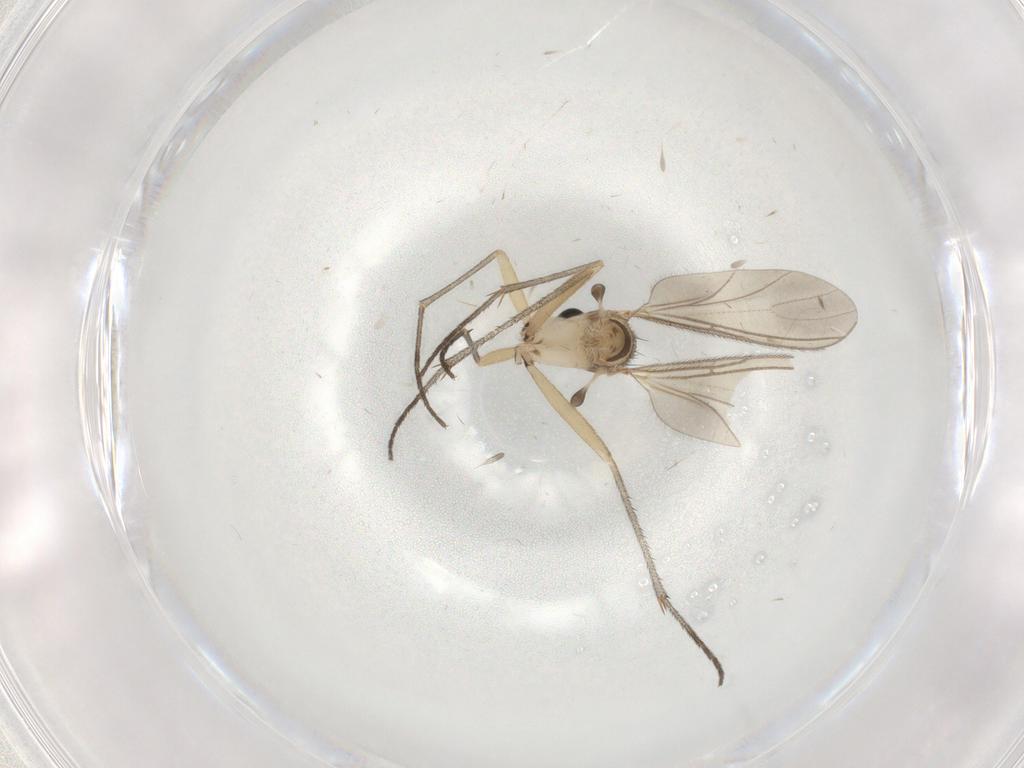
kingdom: Animalia
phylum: Arthropoda
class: Insecta
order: Diptera
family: Cecidomyiidae
